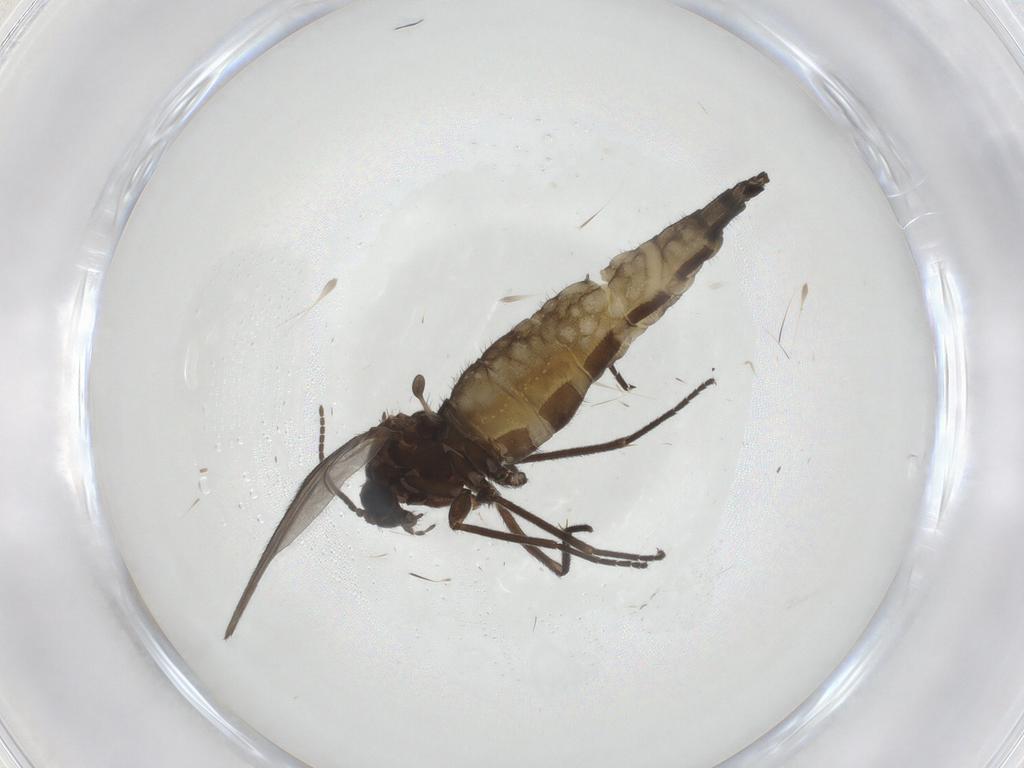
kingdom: Animalia
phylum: Arthropoda
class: Insecta
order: Diptera
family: Sciaridae
